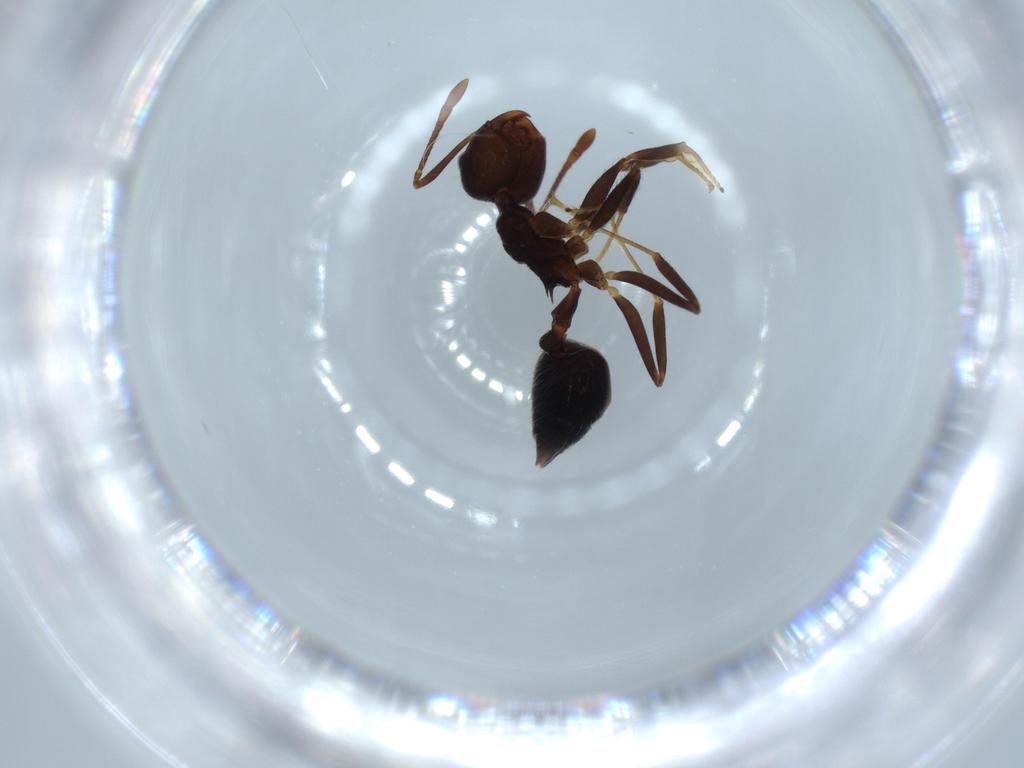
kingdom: Animalia
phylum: Arthropoda
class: Insecta
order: Hymenoptera
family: Formicidae
